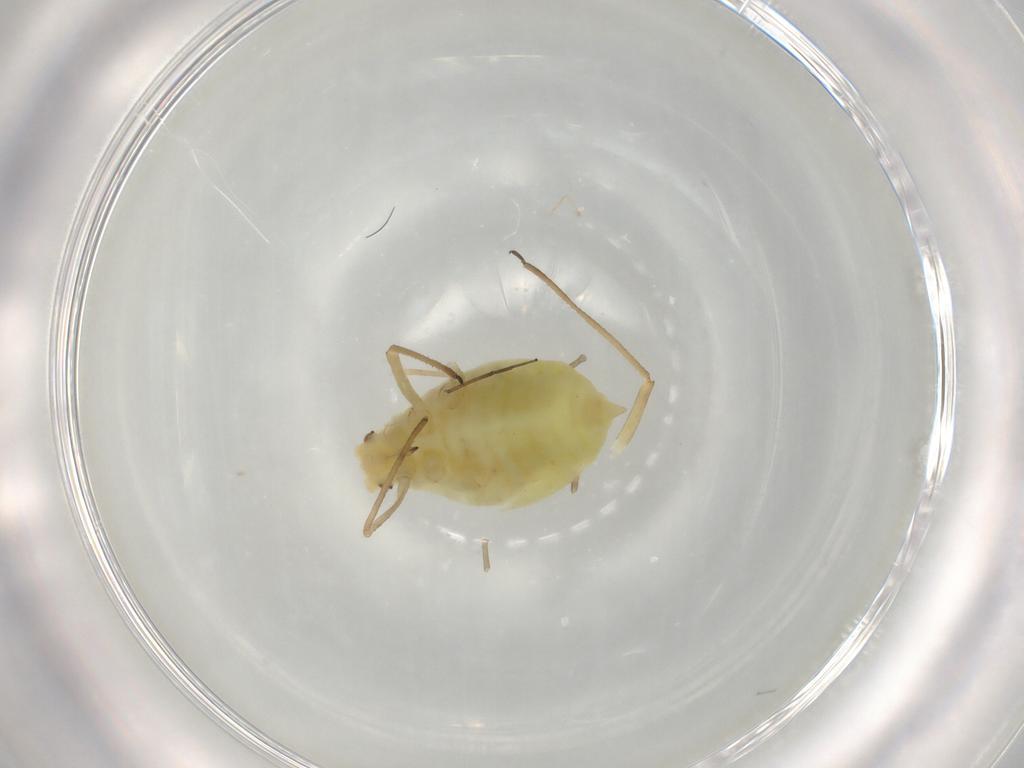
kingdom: Animalia
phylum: Arthropoda
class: Insecta
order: Hemiptera
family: Aphididae
